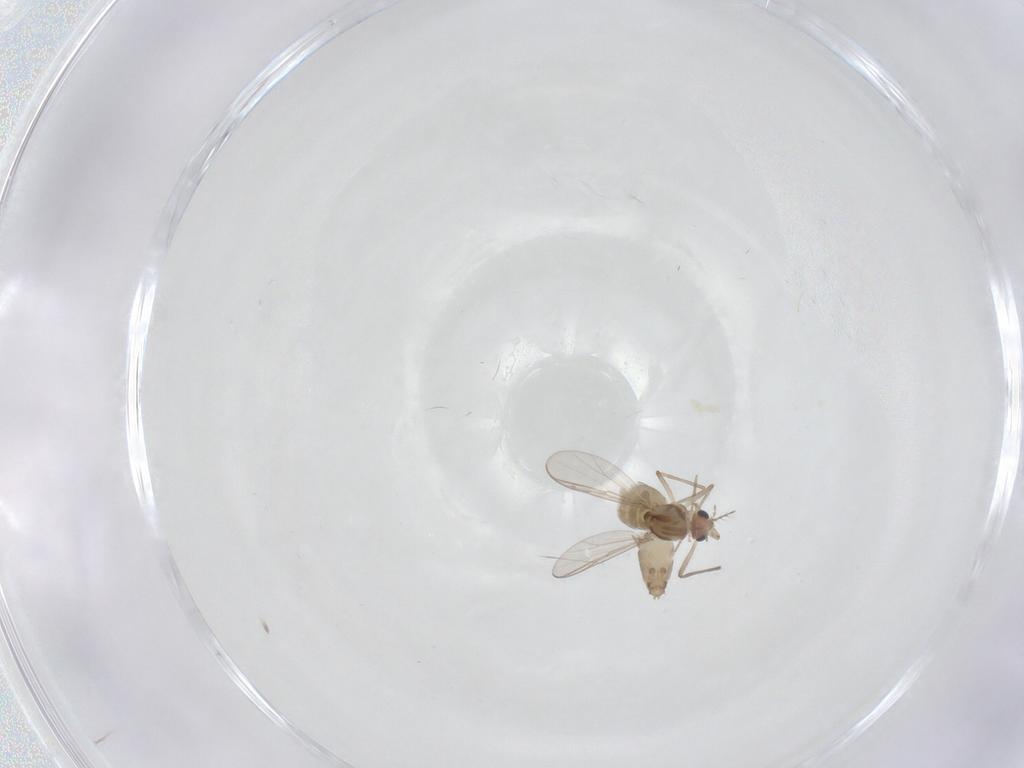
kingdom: Animalia
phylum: Arthropoda
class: Insecta
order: Diptera
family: Chironomidae
